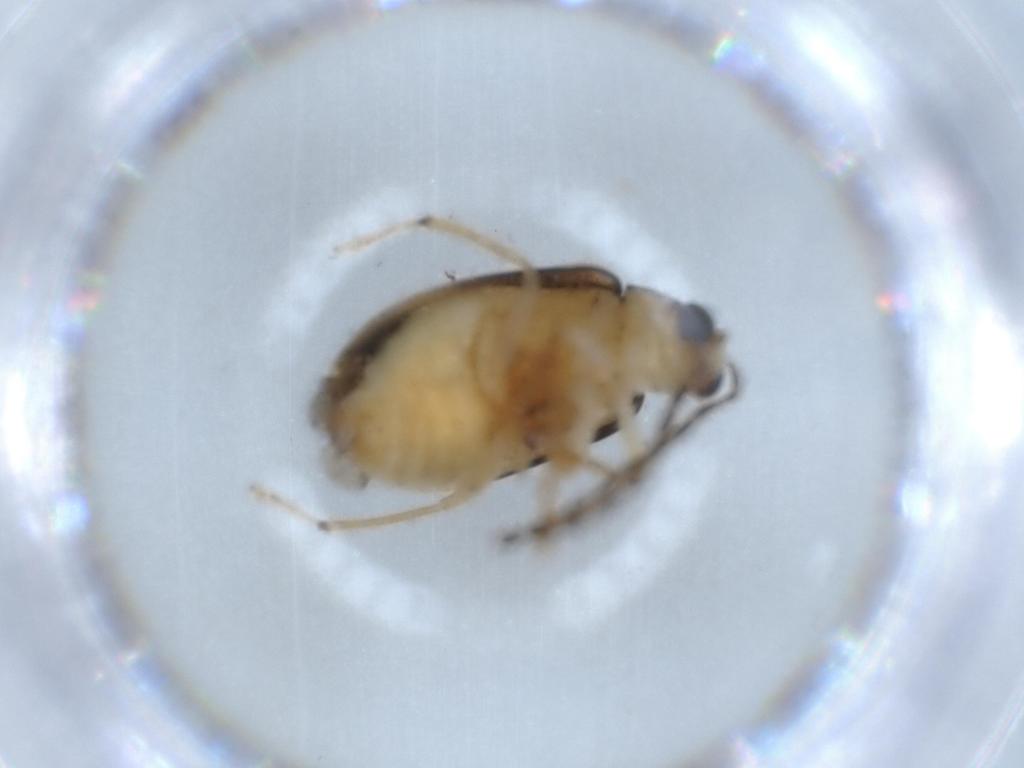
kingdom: Animalia
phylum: Arthropoda
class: Insecta
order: Coleoptera
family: Chrysomelidae
